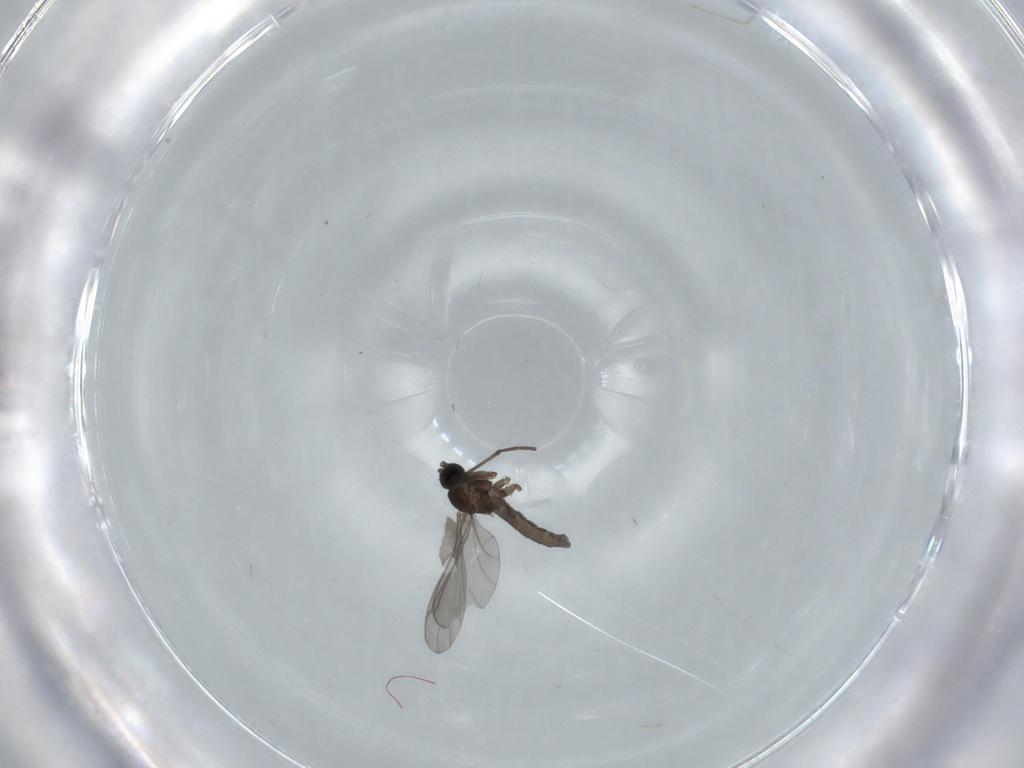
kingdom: Animalia
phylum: Arthropoda
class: Insecta
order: Diptera
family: Sciaridae
